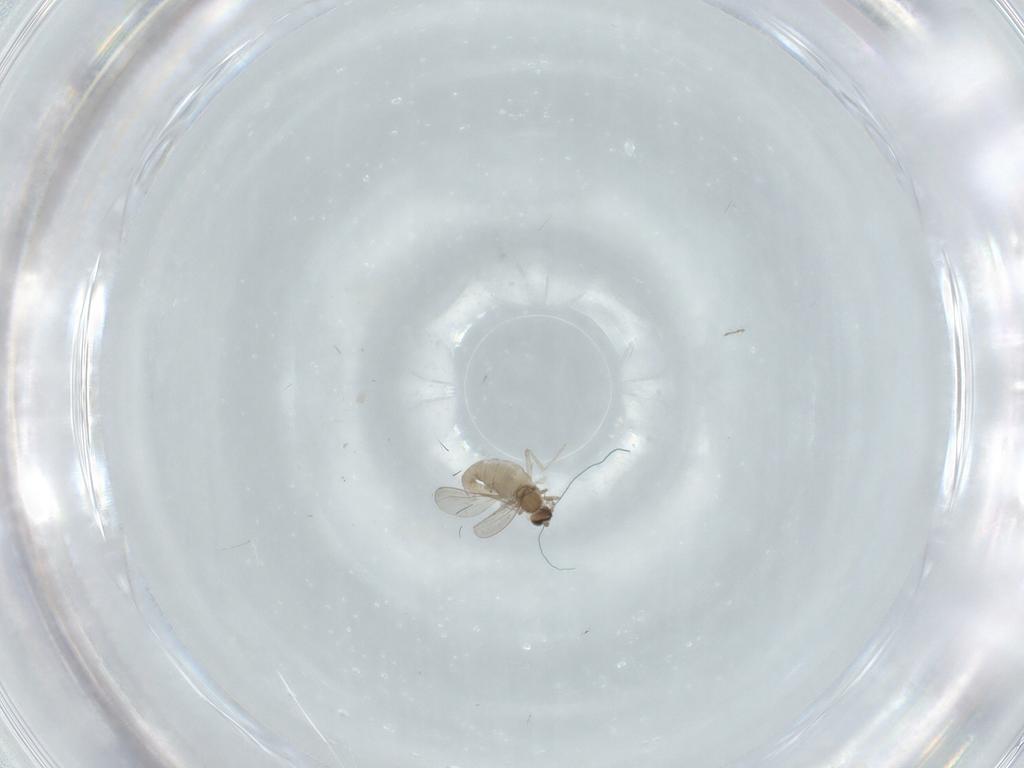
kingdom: Animalia
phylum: Arthropoda
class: Insecta
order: Diptera
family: Cecidomyiidae
